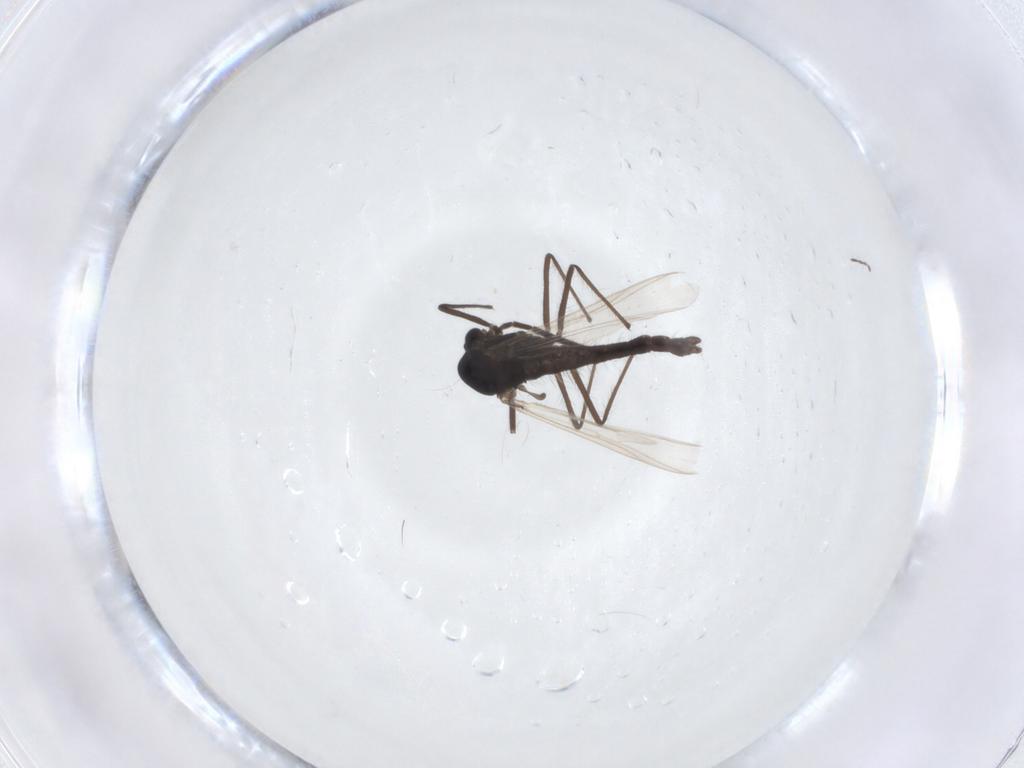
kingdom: Animalia
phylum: Arthropoda
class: Insecta
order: Diptera
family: Sciaridae
